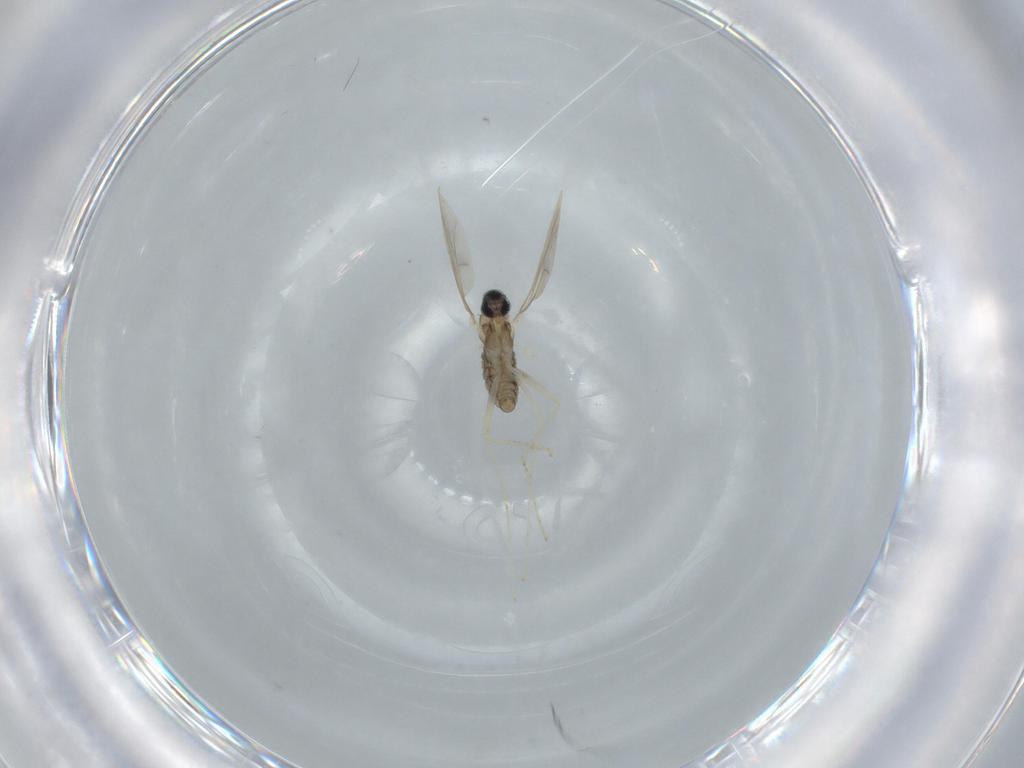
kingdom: Animalia
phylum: Arthropoda
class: Insecta
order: Diptera
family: Cecidomyiidae
